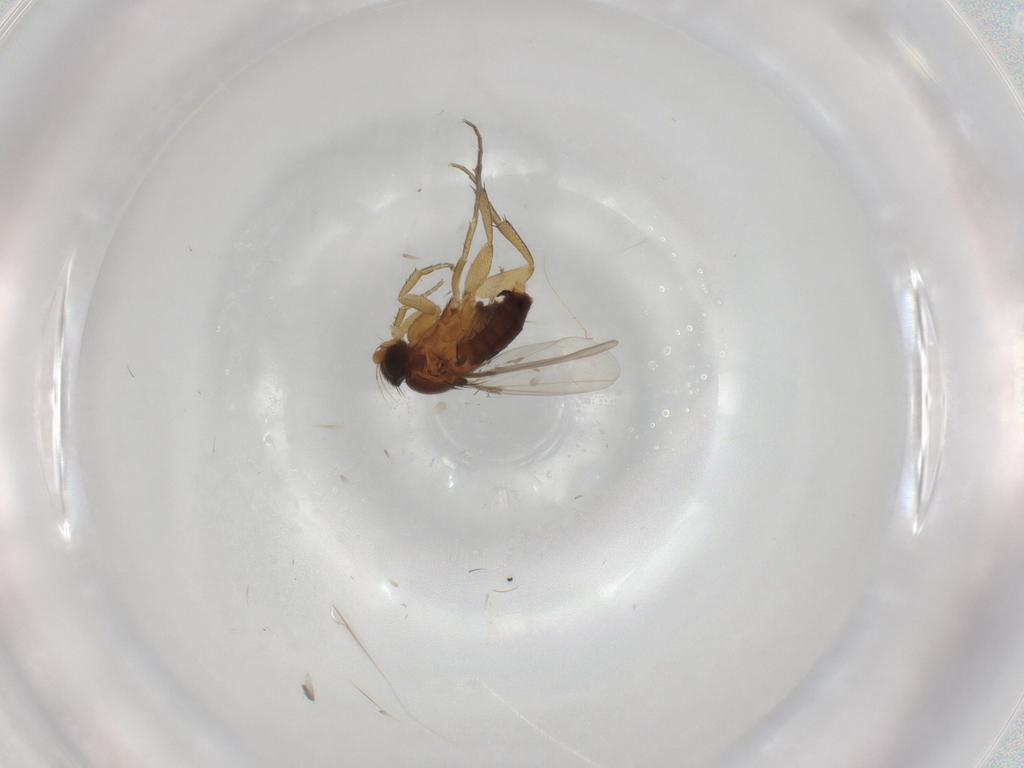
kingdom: Animalia
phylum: Arthropoda
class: Insecta
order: Diptera
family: Phoridae
